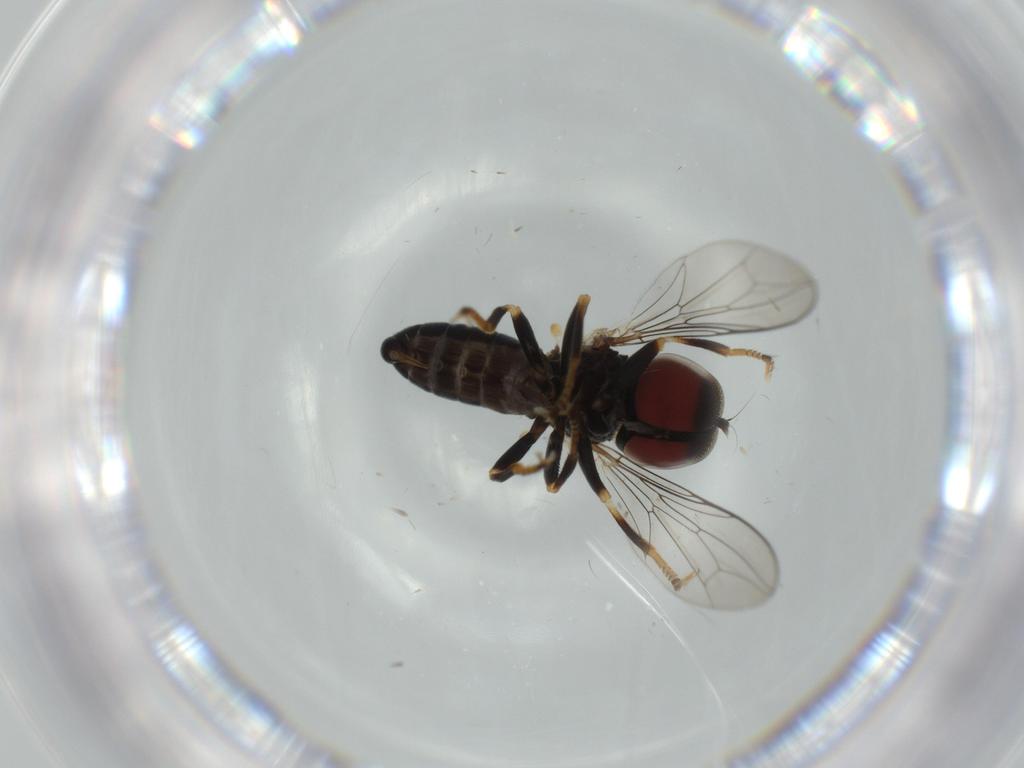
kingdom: Animalia
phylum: Arthropoda
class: Insecta
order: Diptera
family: Pipunculidae
